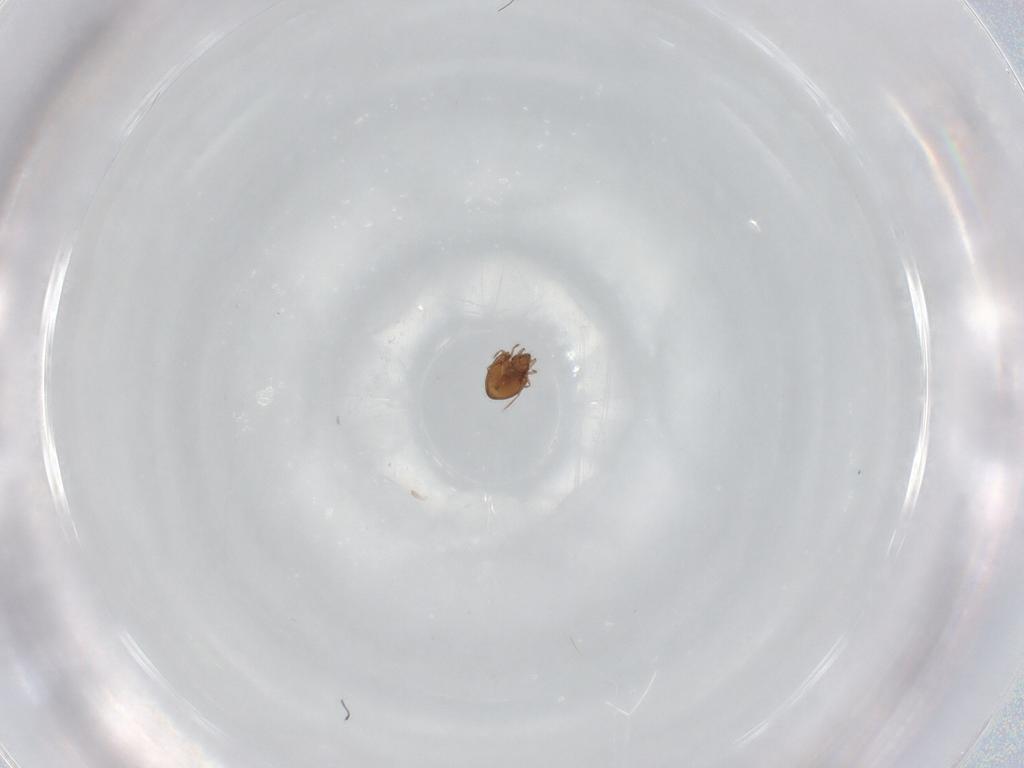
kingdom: Animalia
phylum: Arthropoda
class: Arachnida
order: Sarcoptiformes
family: Oribatulidae
